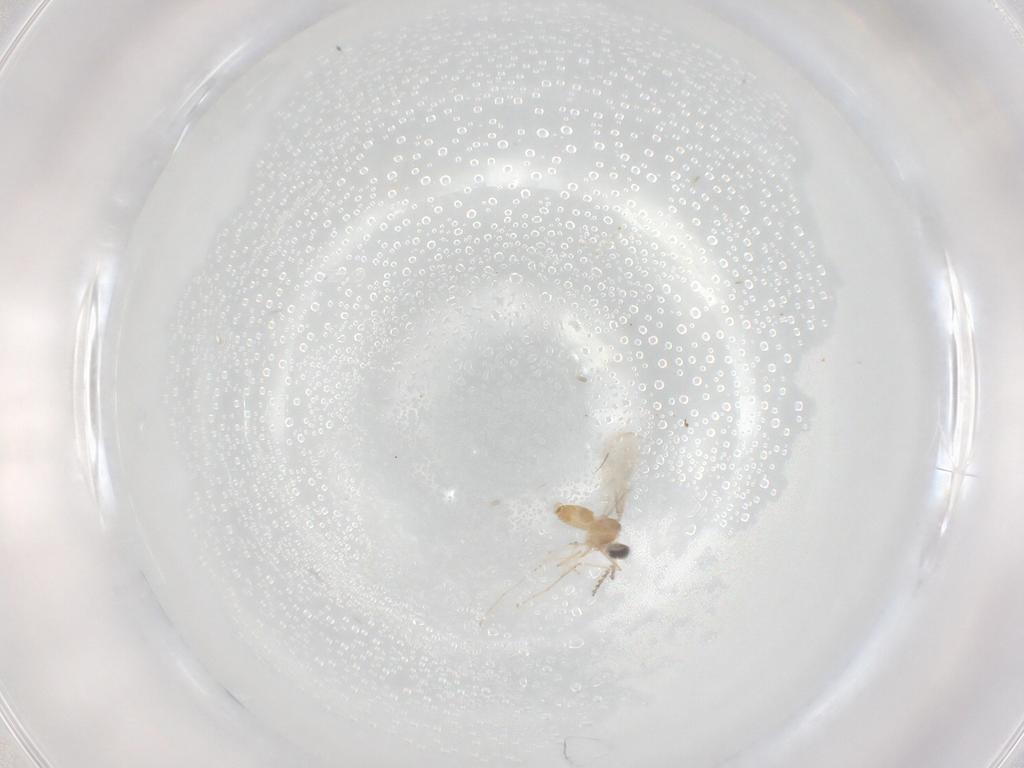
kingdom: Animalia
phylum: Arthropoda
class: Insecta
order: Diptera
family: Cecidomyiidae
